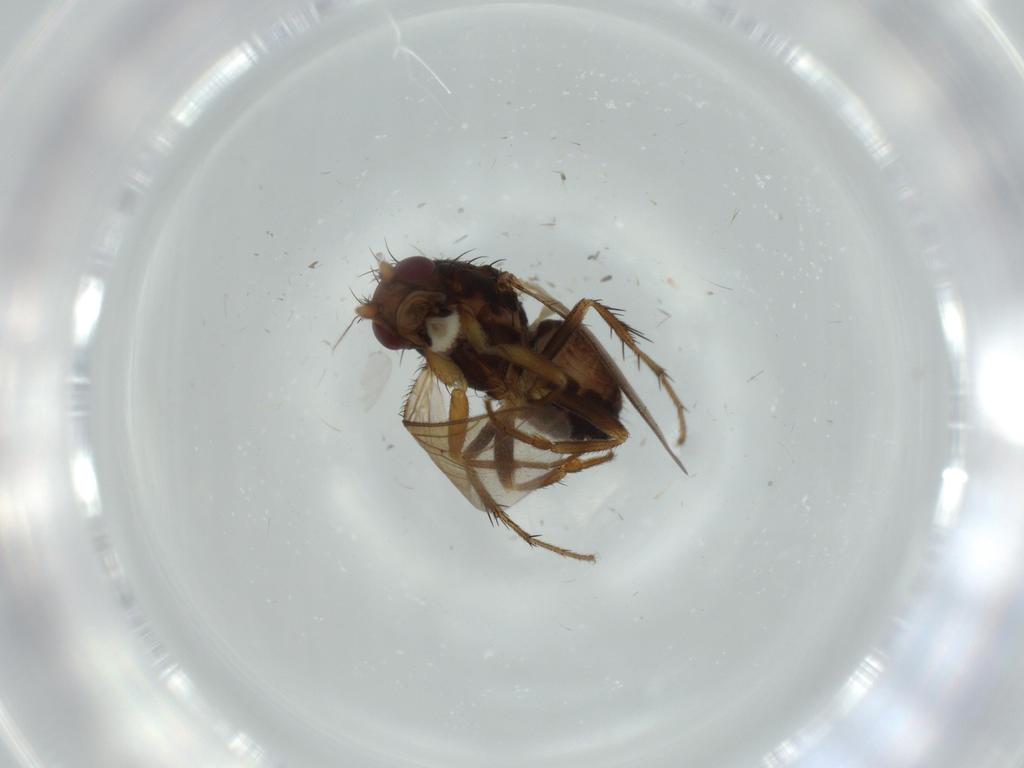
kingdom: Animalia
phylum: Arthropoda
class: Insecta
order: Diptera
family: Sphaeroceridae
